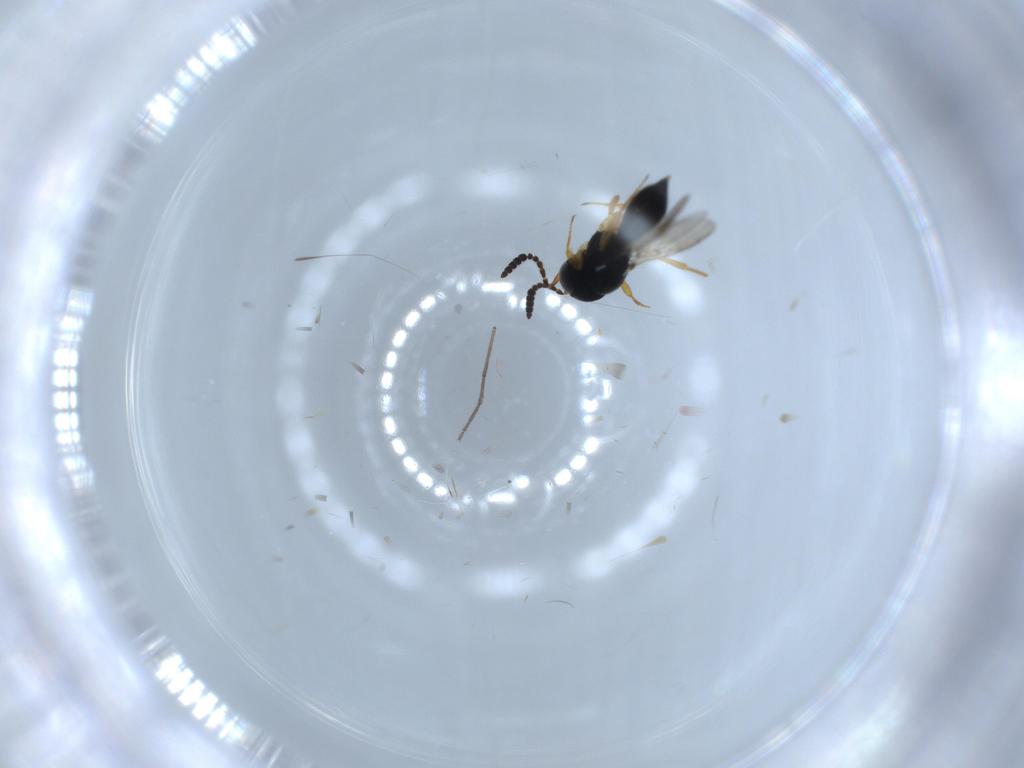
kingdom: Animalia
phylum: Arthropoda
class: Insecta
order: Hymenoptera
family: Scelionidae
